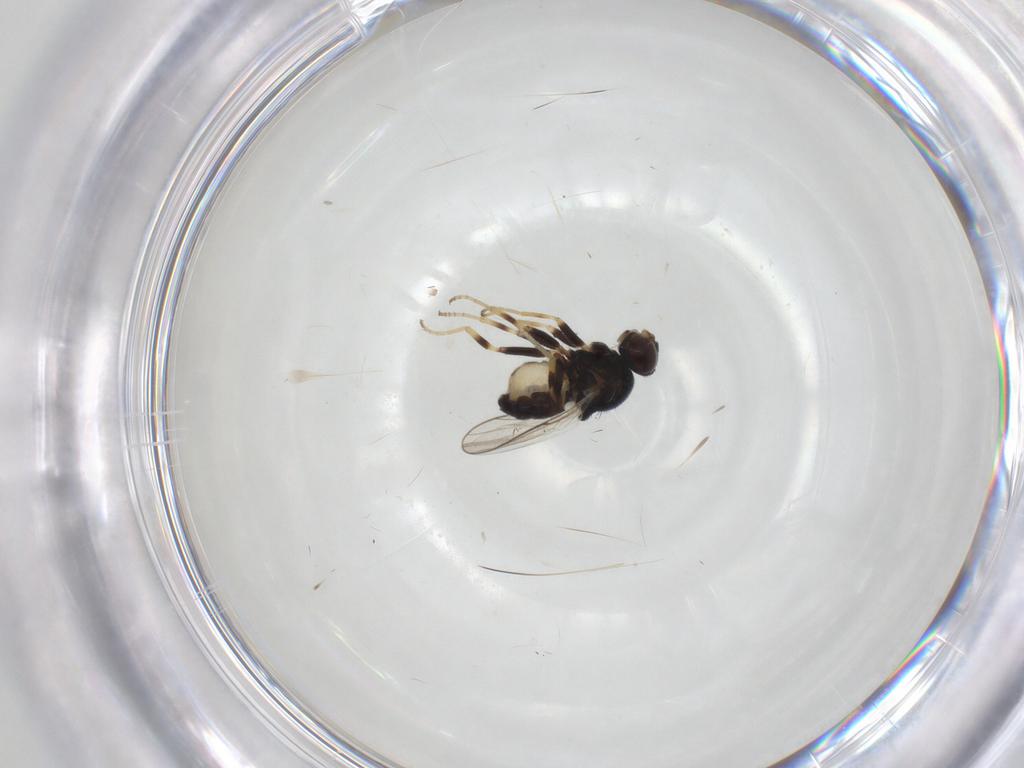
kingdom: Animalia
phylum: Arthropoda
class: Insecta
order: Diptera
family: Chloropidae
